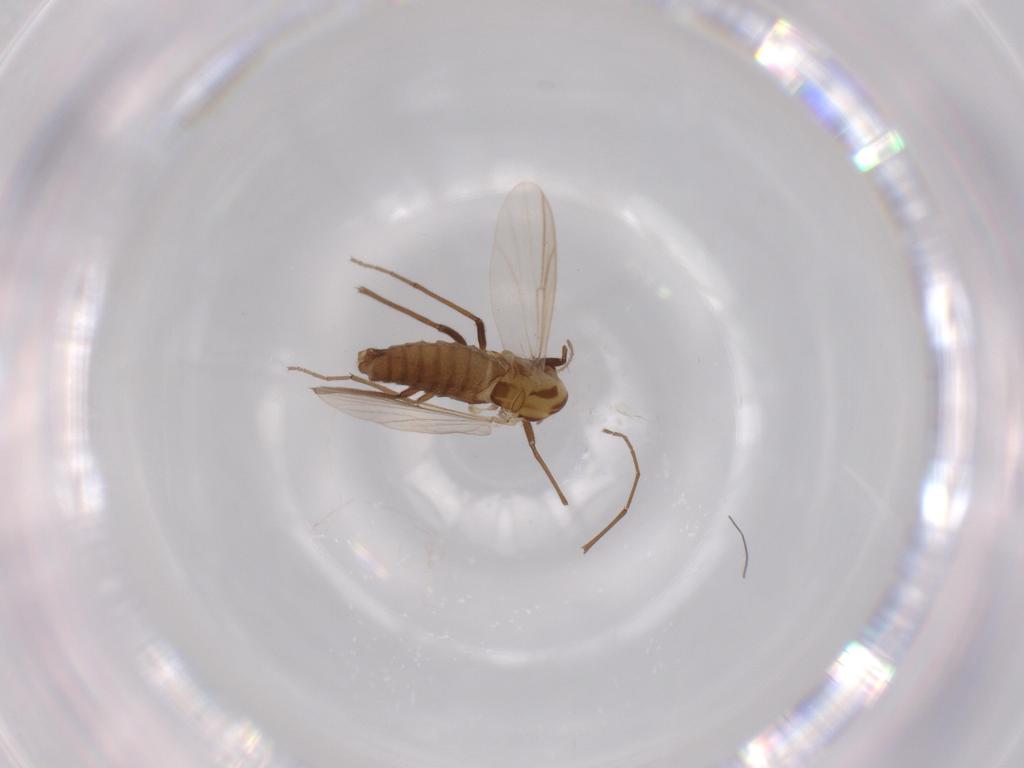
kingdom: Animalia
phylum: Arthropoda
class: Insecta
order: Diptera
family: Chironomidae
